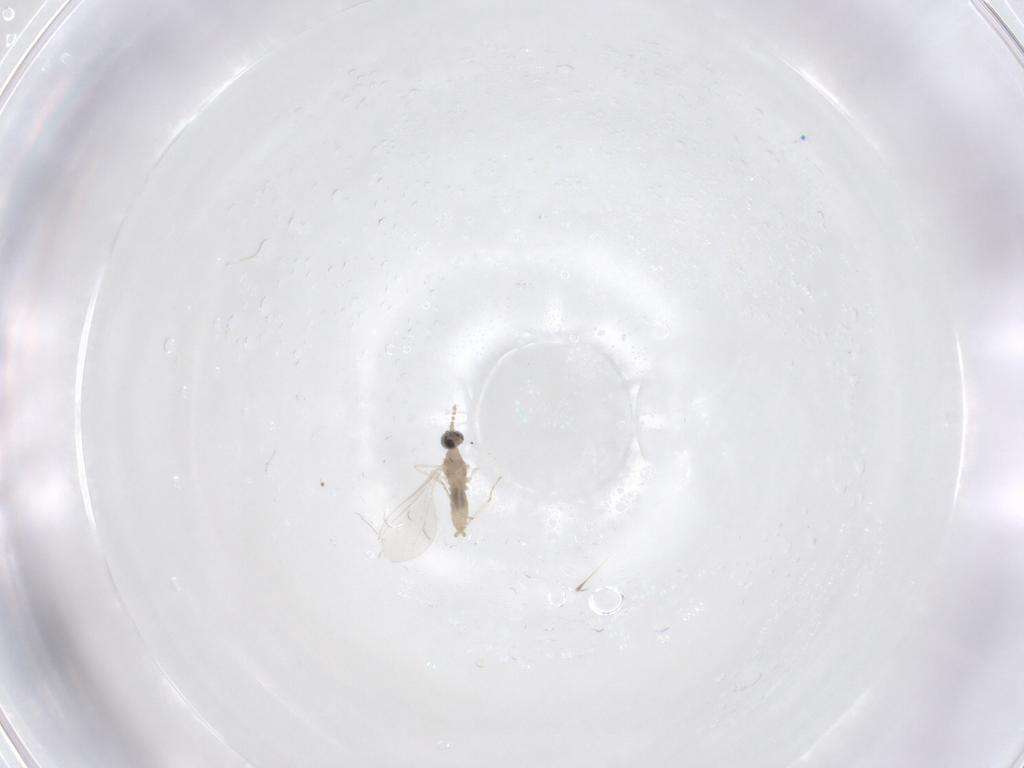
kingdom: Animalia
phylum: Arthropoda
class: Insecta
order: Diptera
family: Cecidomyiidae
